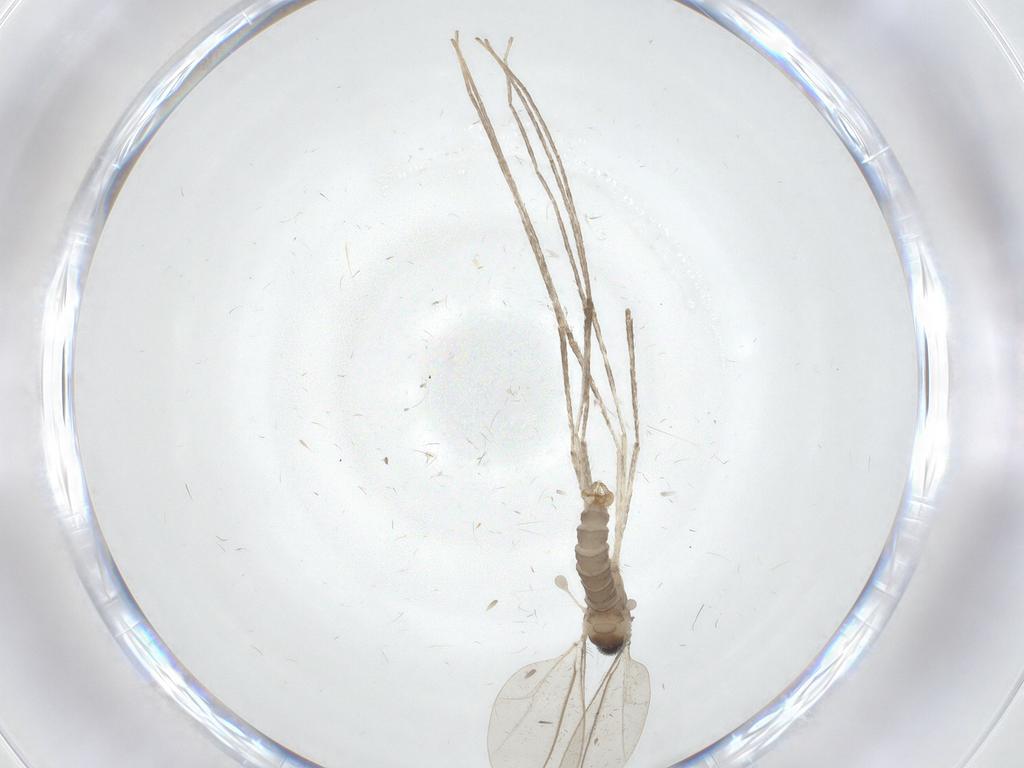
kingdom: Animalia
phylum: Arthropoda
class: Insecta
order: Diptera
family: Cecidomyiidae
